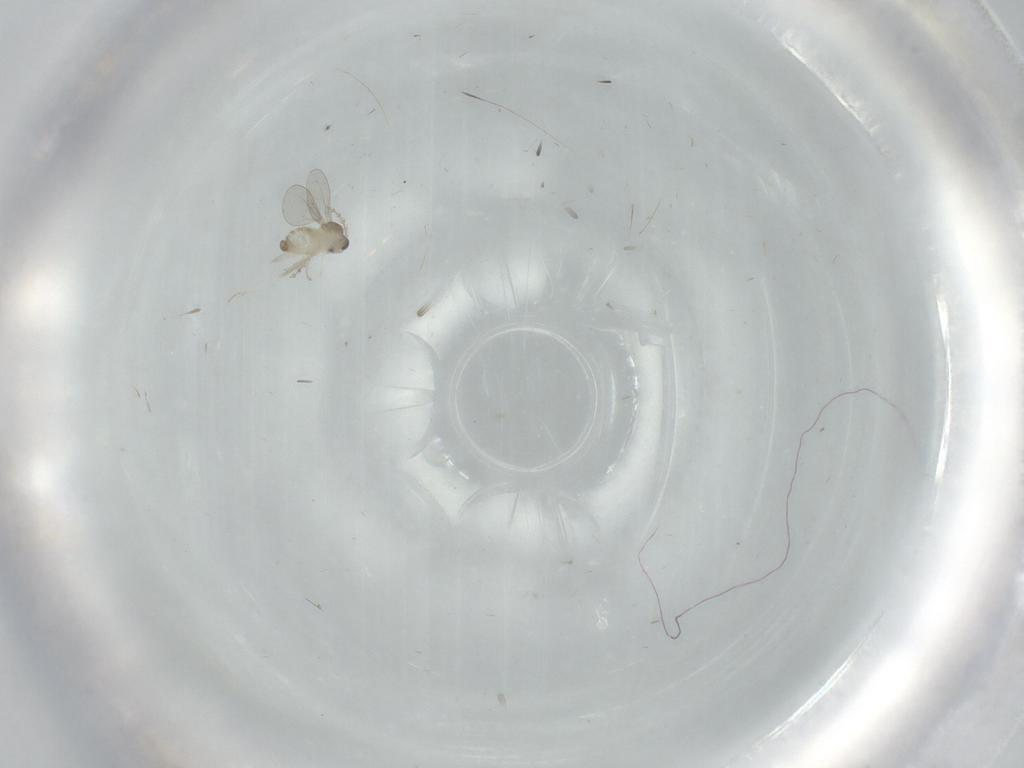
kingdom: Animalia
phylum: Arthropoda
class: Insecta
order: Diptera
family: Cecidomyiidae
